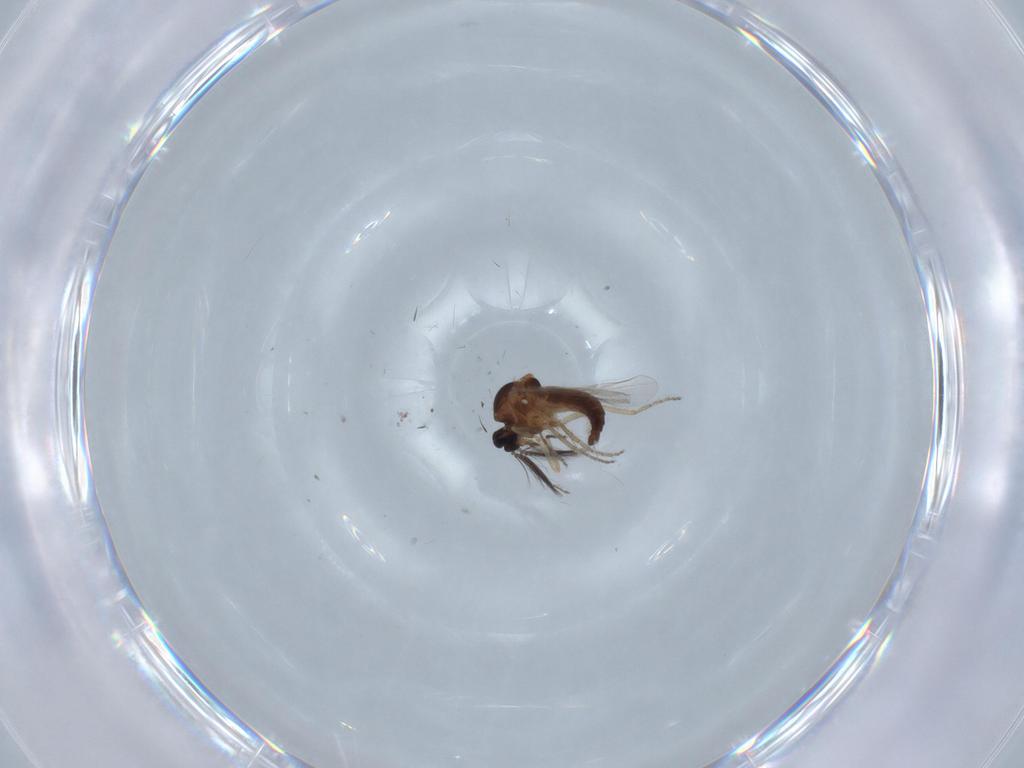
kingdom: Animalia
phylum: Arthropoda
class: Insecta
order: Diptera
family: Chironomidae
